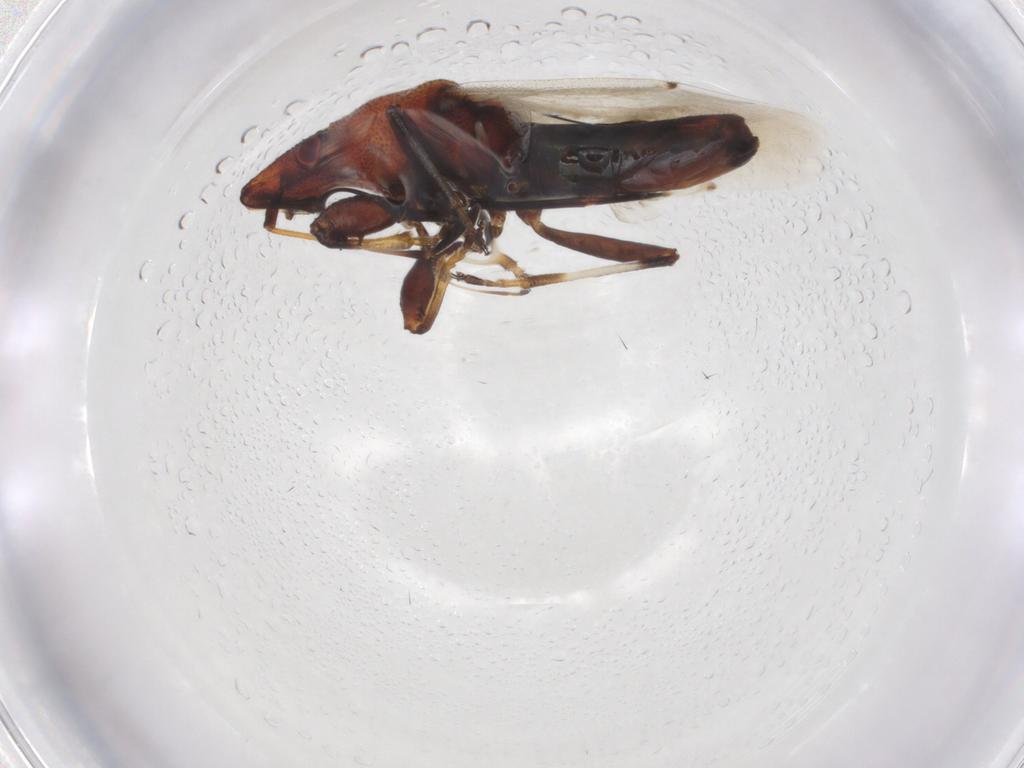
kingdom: Animalia
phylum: Arthropoda
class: Insecta
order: Hemiptera
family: Oxycarenidae
